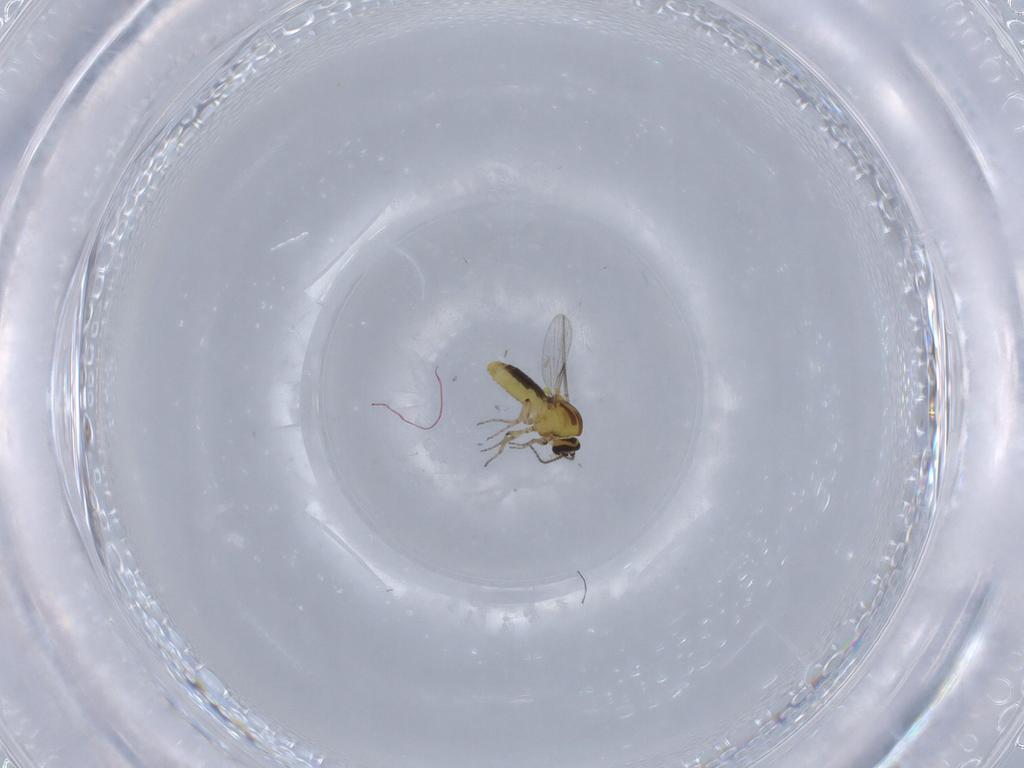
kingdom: Animalia
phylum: Arthropoda
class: Insecta
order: Diptera
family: Ceratopogonidae
